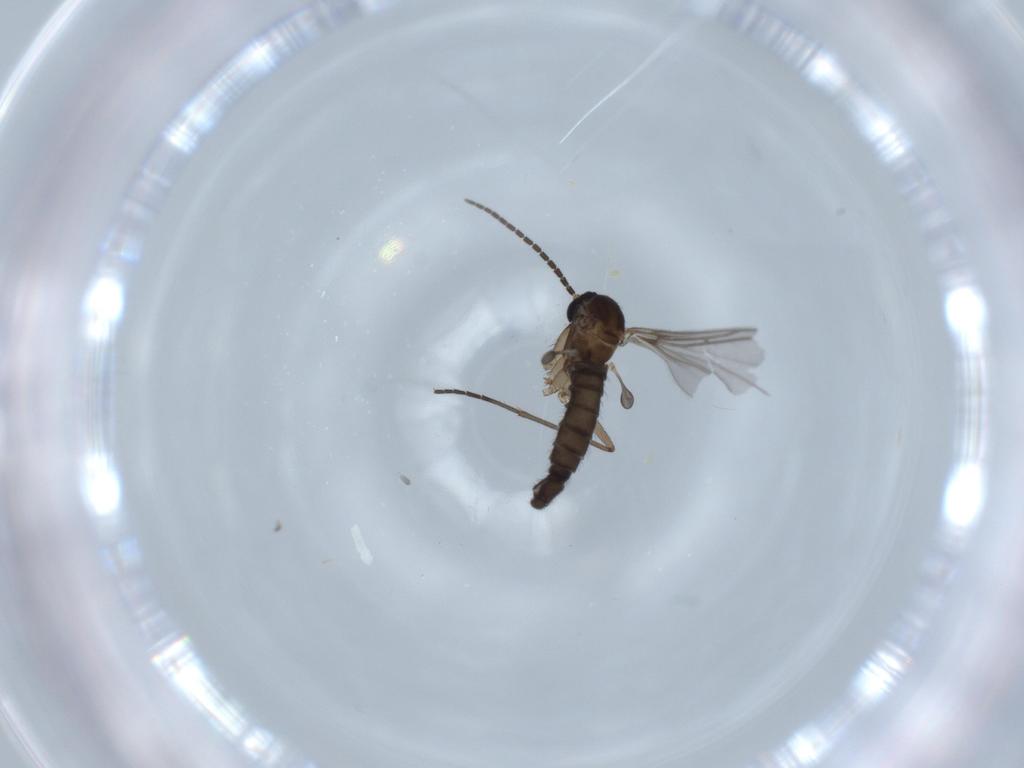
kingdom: Animalia
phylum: Arthropoda
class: Insecta
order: Diptera
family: Sciaridae
